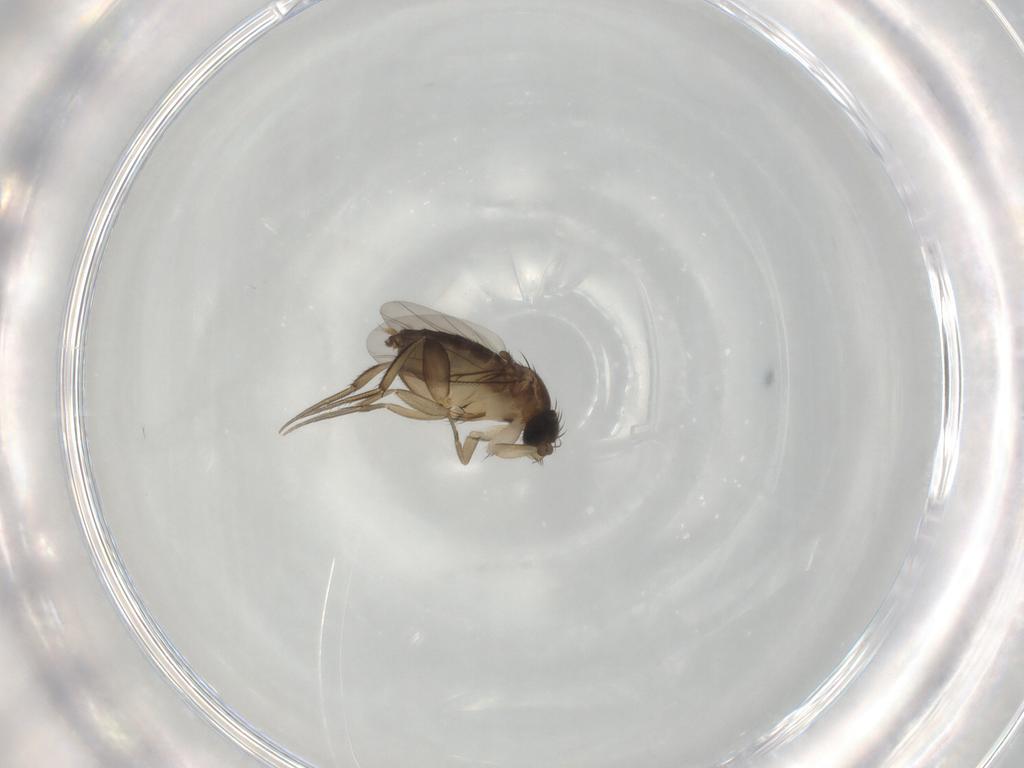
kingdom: Animalia
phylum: Arthropoda
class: Insecta
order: Diptera
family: Phoridae
